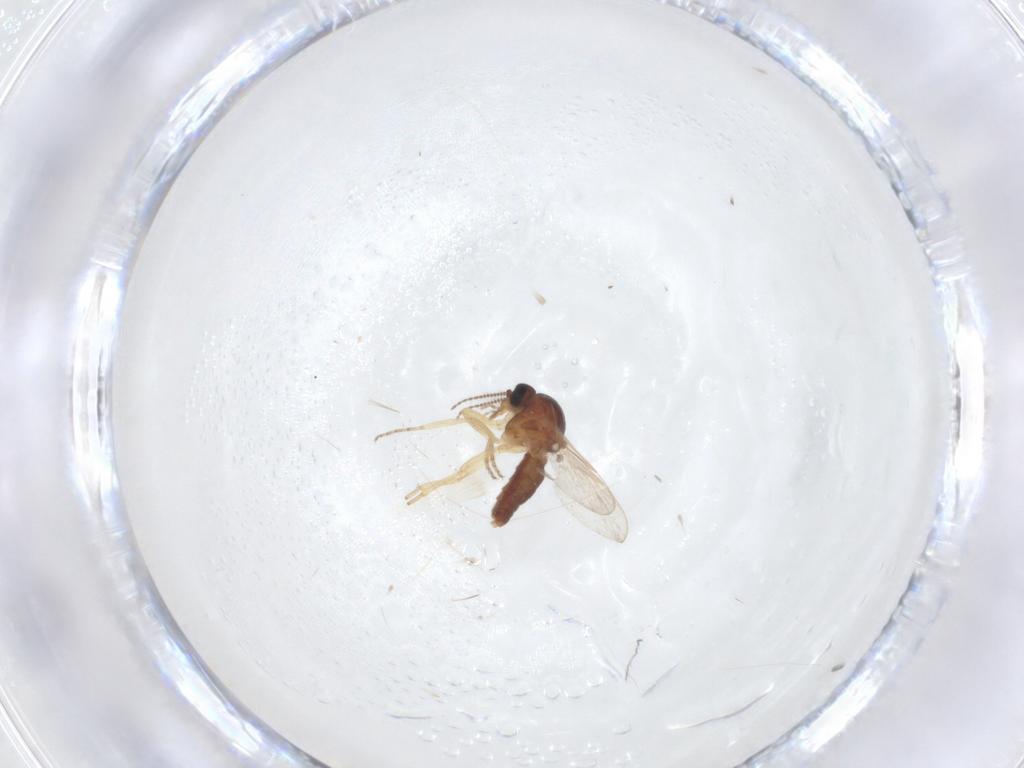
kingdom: Animalia
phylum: Arthropoda
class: Insecta
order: Diptera
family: Ceratopogonidae
